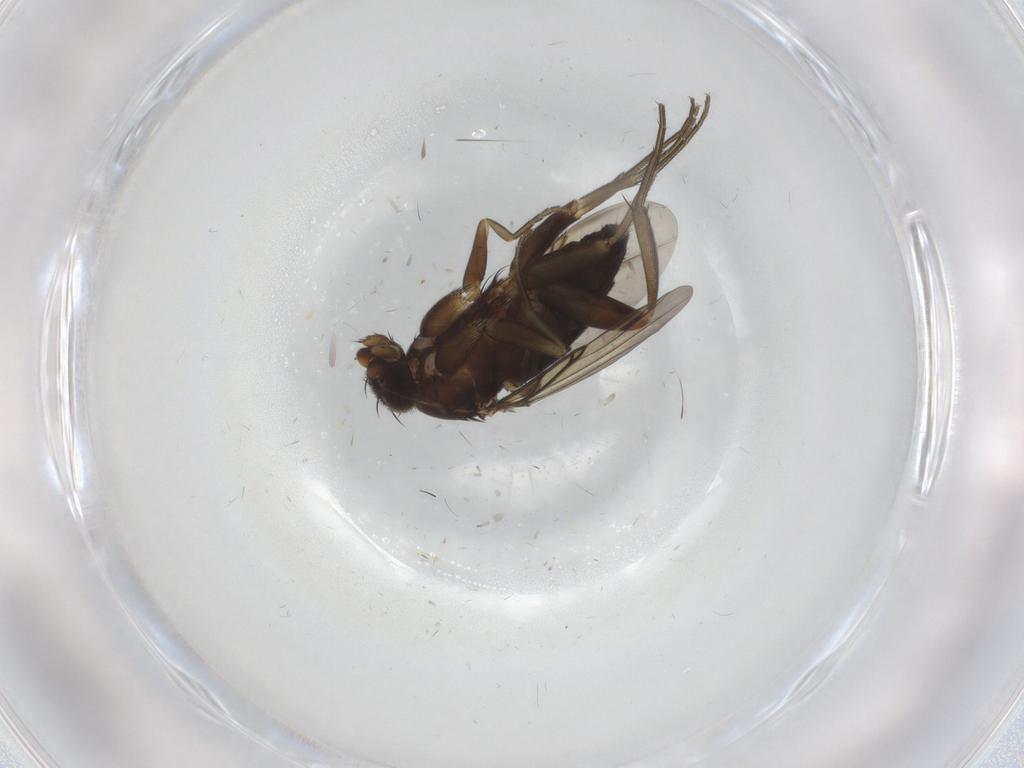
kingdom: Animalia
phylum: Arthropoda
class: Insecta
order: Diptera
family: Phoridae
